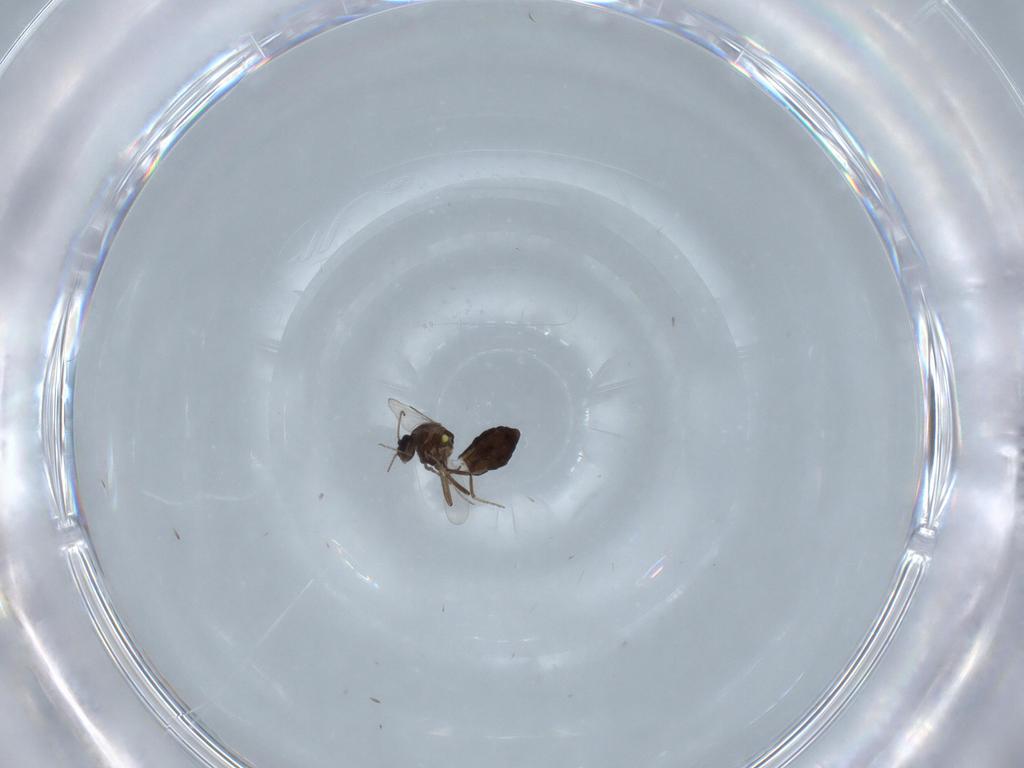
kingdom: Animalia
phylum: Arthropoda
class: Insecta
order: Diptera
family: Ceratopogonidae
